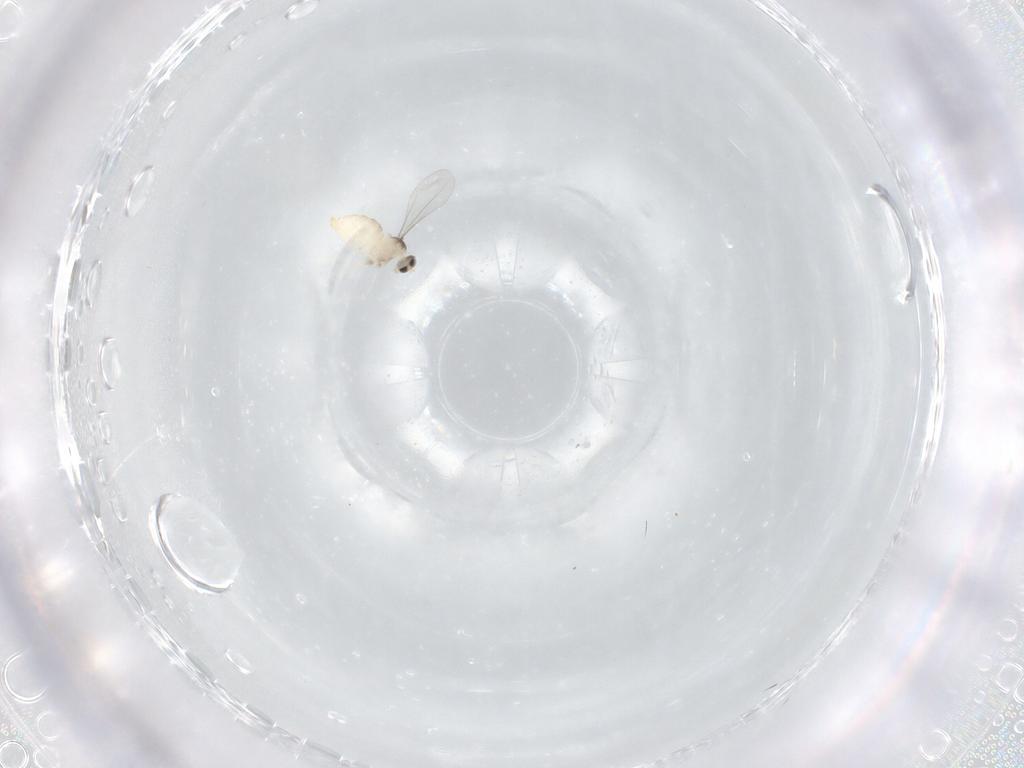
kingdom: Animalia
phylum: Arthropoda
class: Insecta
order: Diptera
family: Cecidomyiidae
